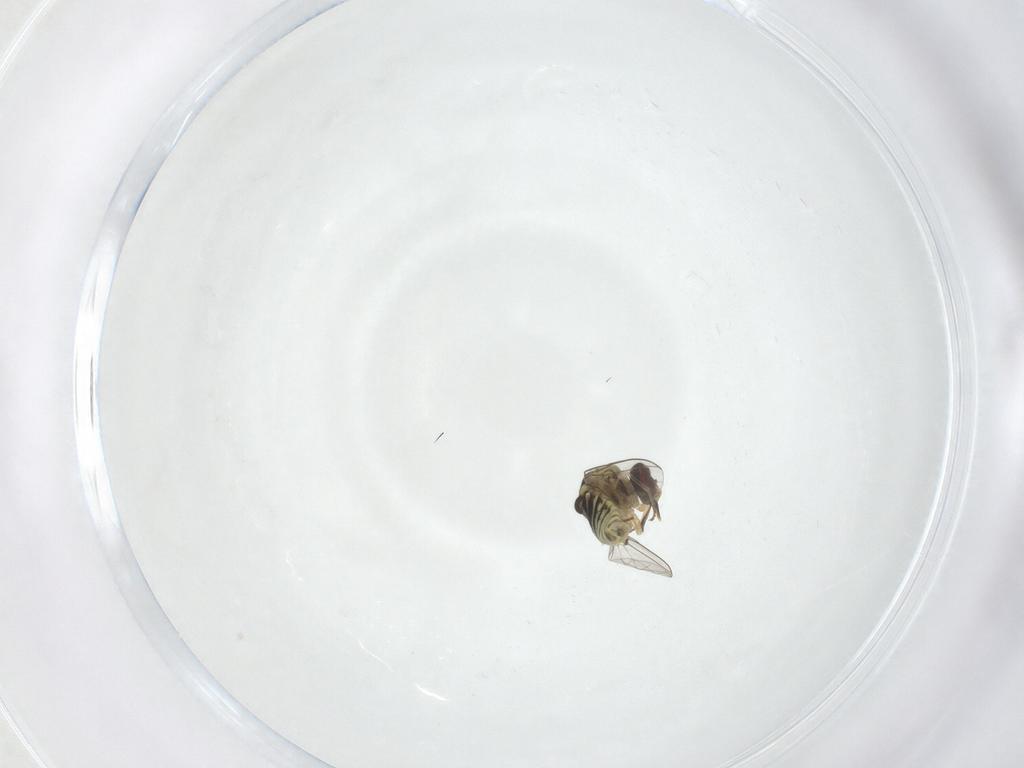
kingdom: Animalia
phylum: Arthropoda
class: Insecta
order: Diptera
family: Mythicomyiidae
